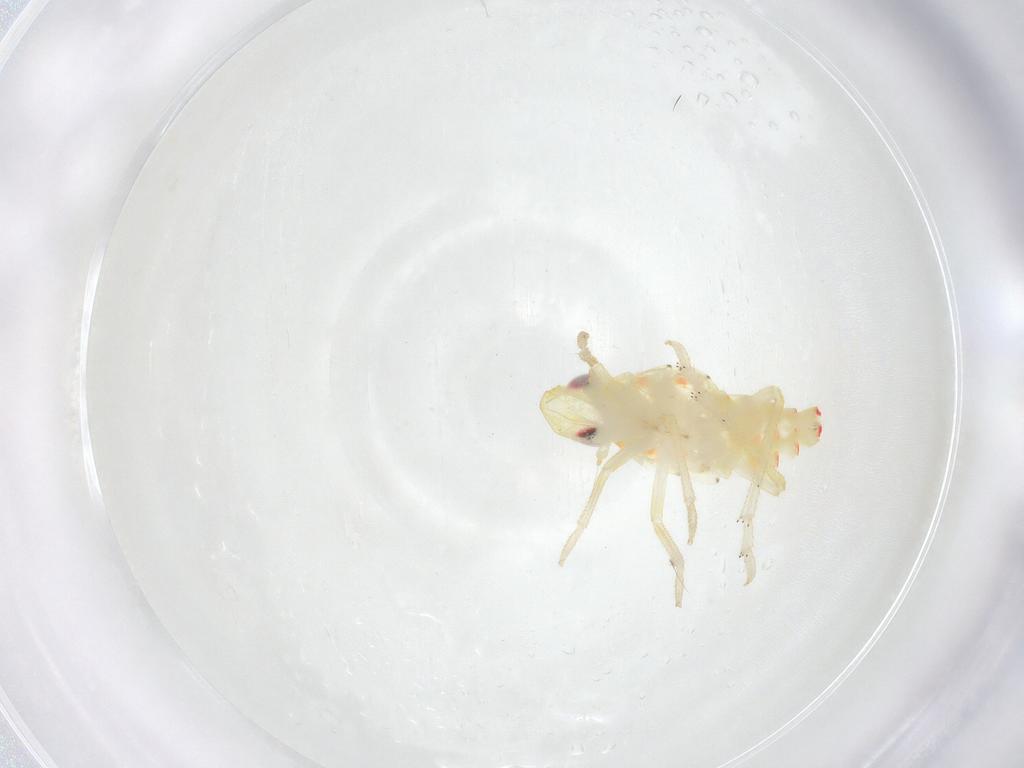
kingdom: Animalia
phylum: Arthropoda
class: Insecta
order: Hemiptera
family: Tropiduchidae
